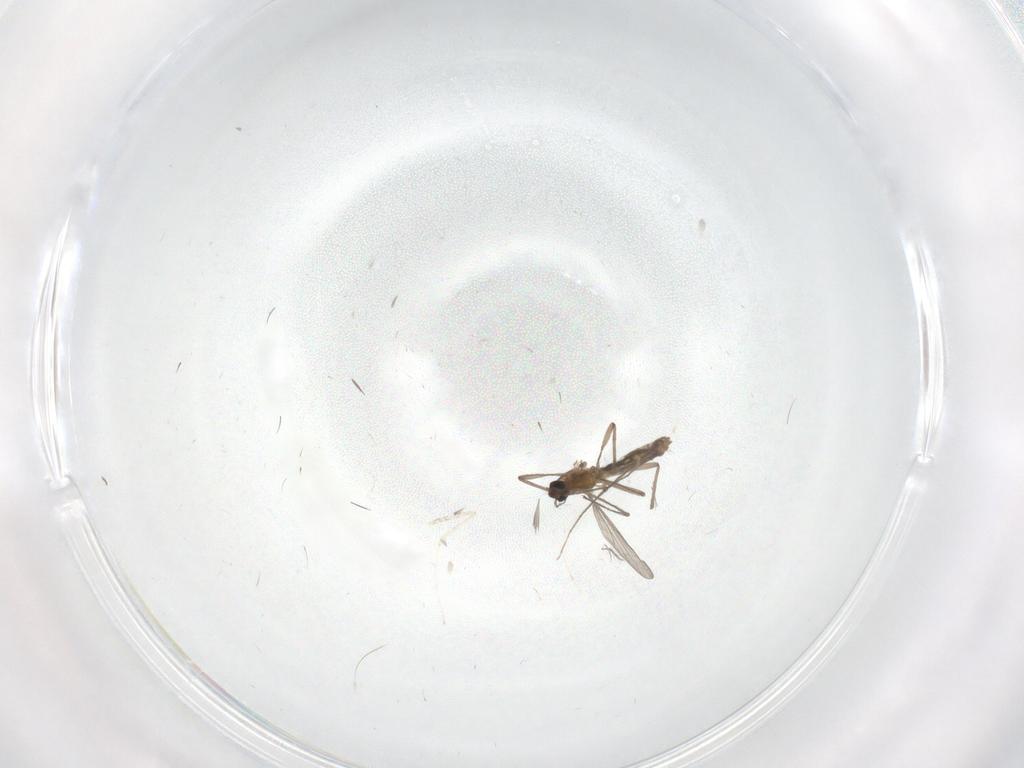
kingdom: Animalia
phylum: Arthropoda
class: Insecta
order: Diptera
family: Ceratopogonidae
